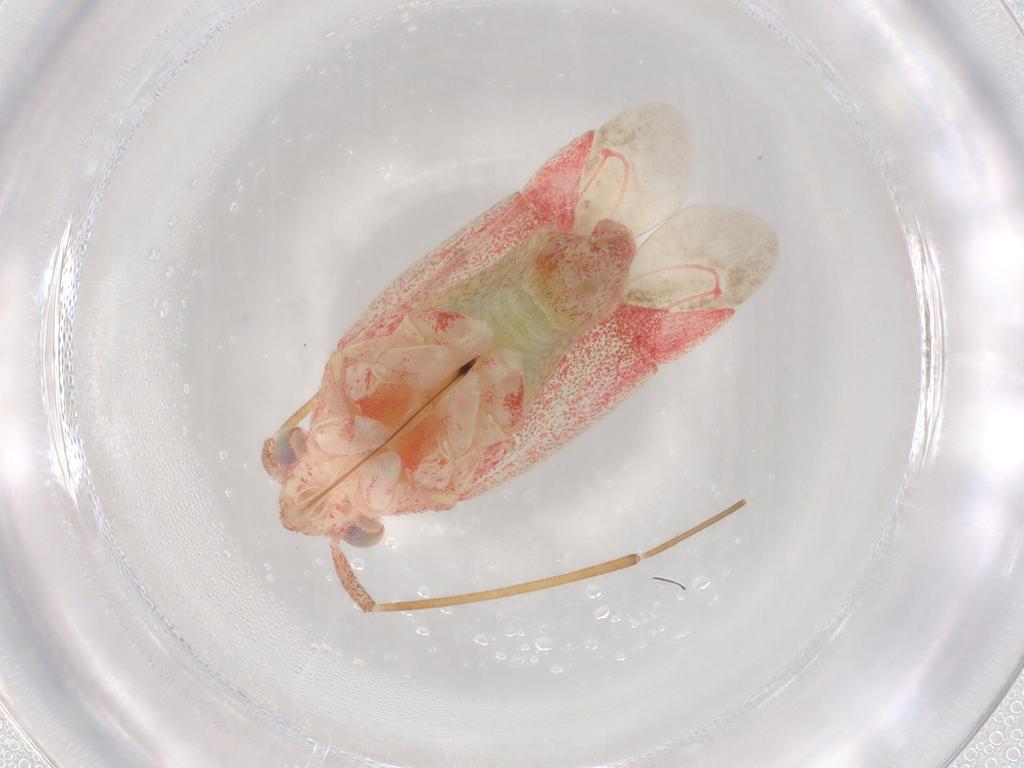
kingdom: Animalia
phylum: Arthropoda
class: Insecta
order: Hemiptera
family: Miridae
